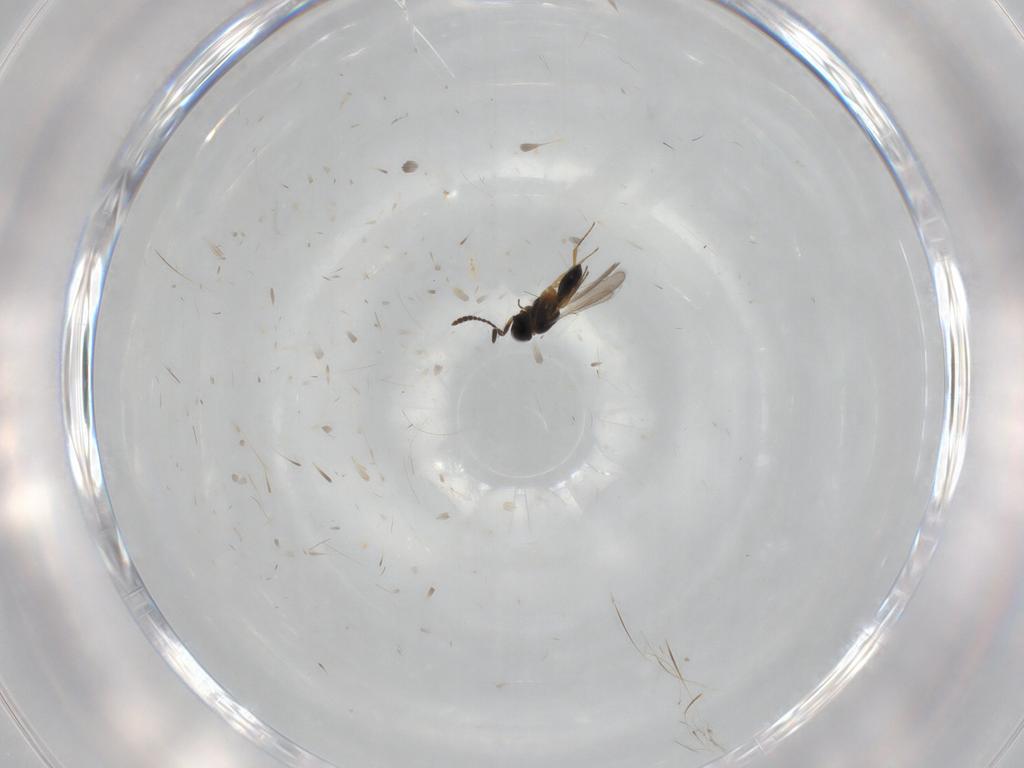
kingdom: Animalia
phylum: Arthropoda
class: Insecta
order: Hymenoptera
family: Scelionidae
